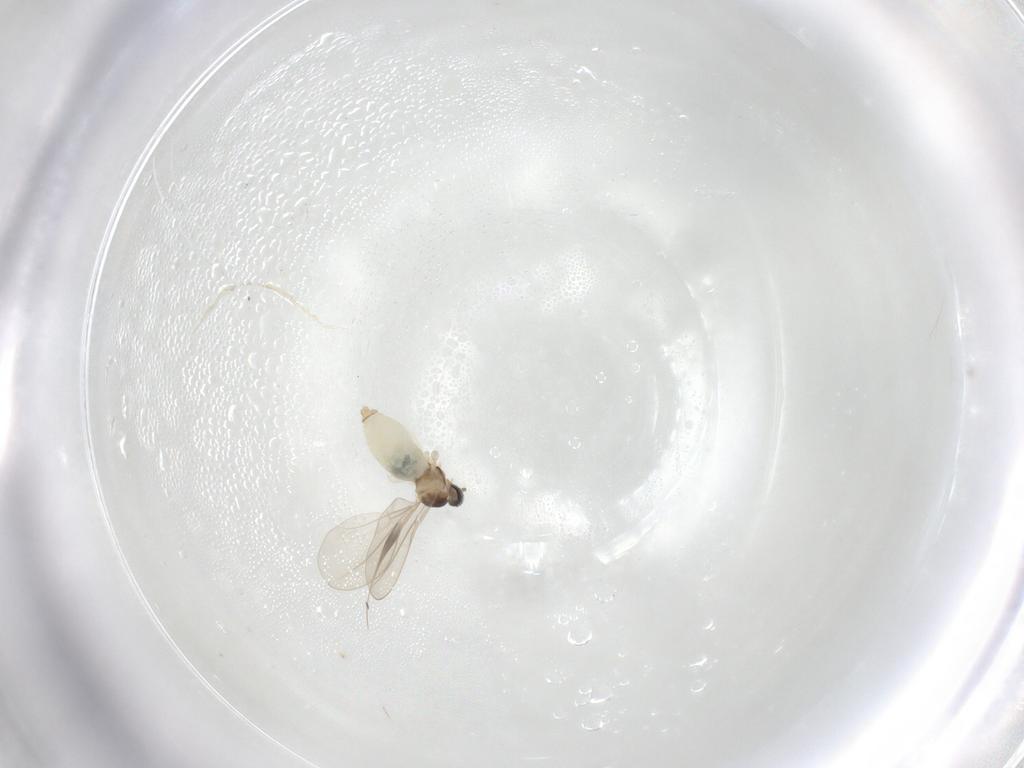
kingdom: Animalia
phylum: Arthropoda
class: Insecta
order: Diptera
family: Cecidomyiidae
